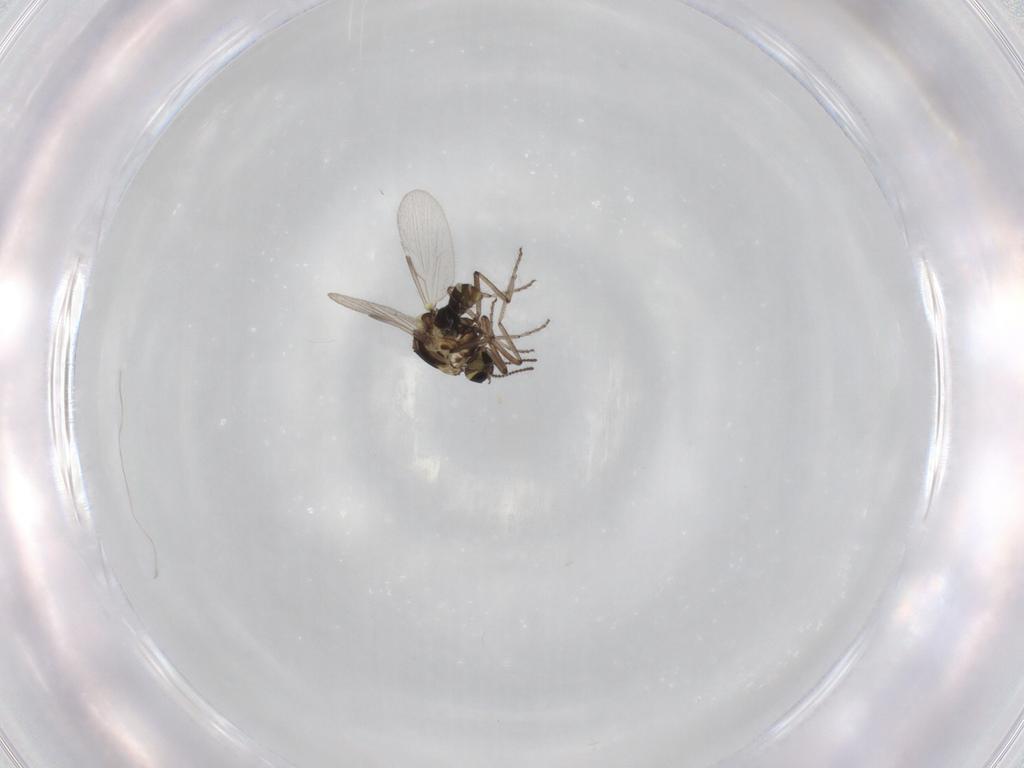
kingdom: Animalia
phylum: Arthropoda
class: Insecta
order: Diptera
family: Ceratopogonidae
